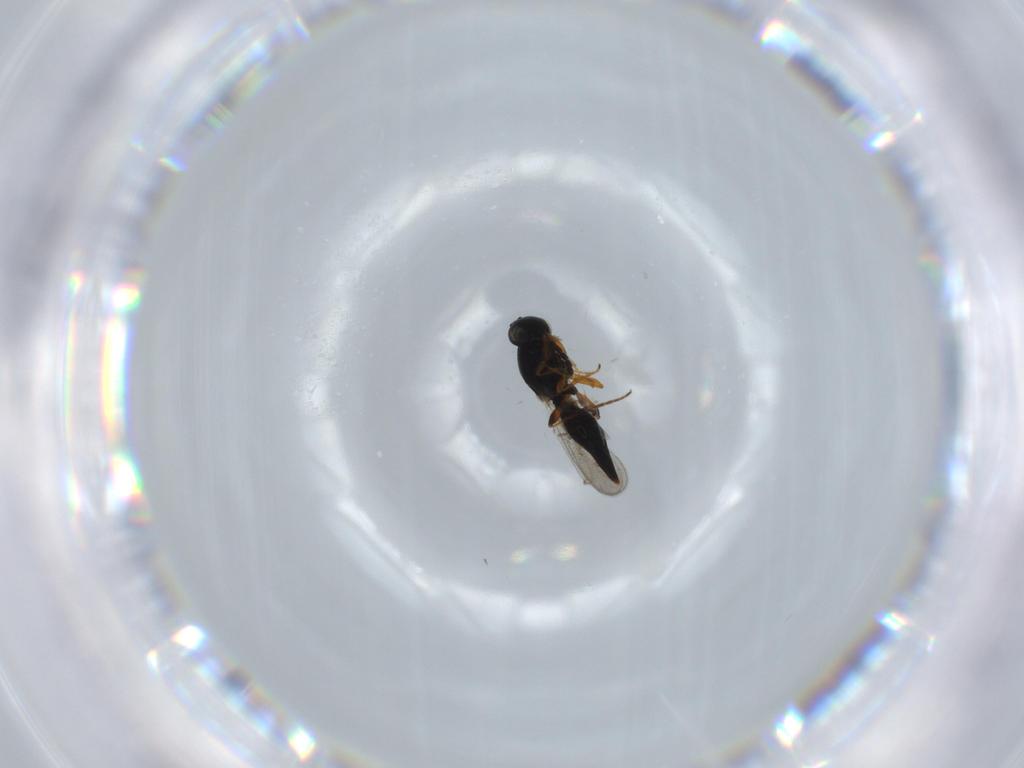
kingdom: Animalia
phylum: Arthropoda
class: Insecta
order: Hymenoptera
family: Platygastridae
